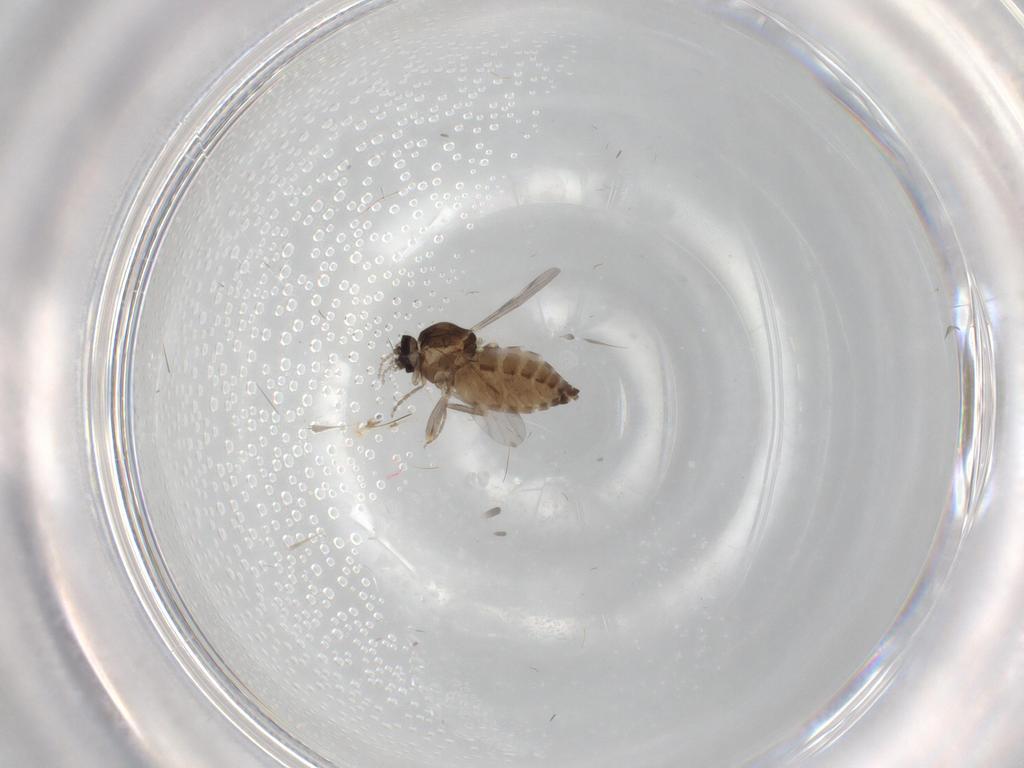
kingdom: Animalia
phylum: Arthropoda
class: Insecta
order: Diptera
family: Ceratopogonidae
